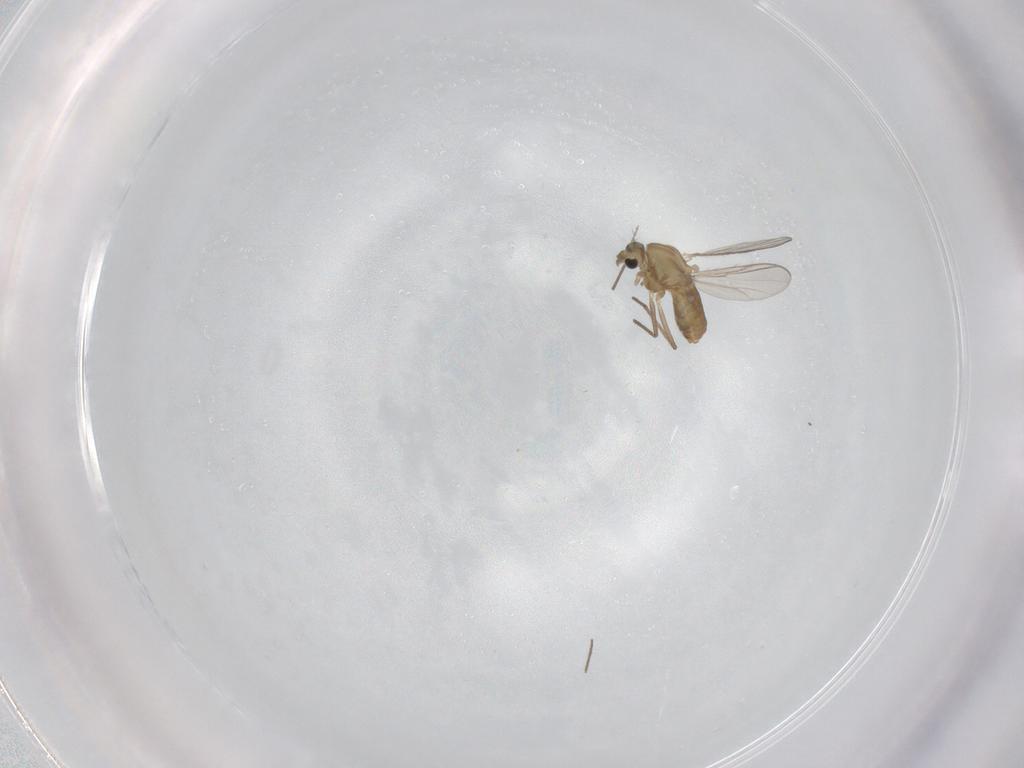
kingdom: Animalia
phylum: Arthropoda
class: Insecta
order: Diptera
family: Chironomidae
